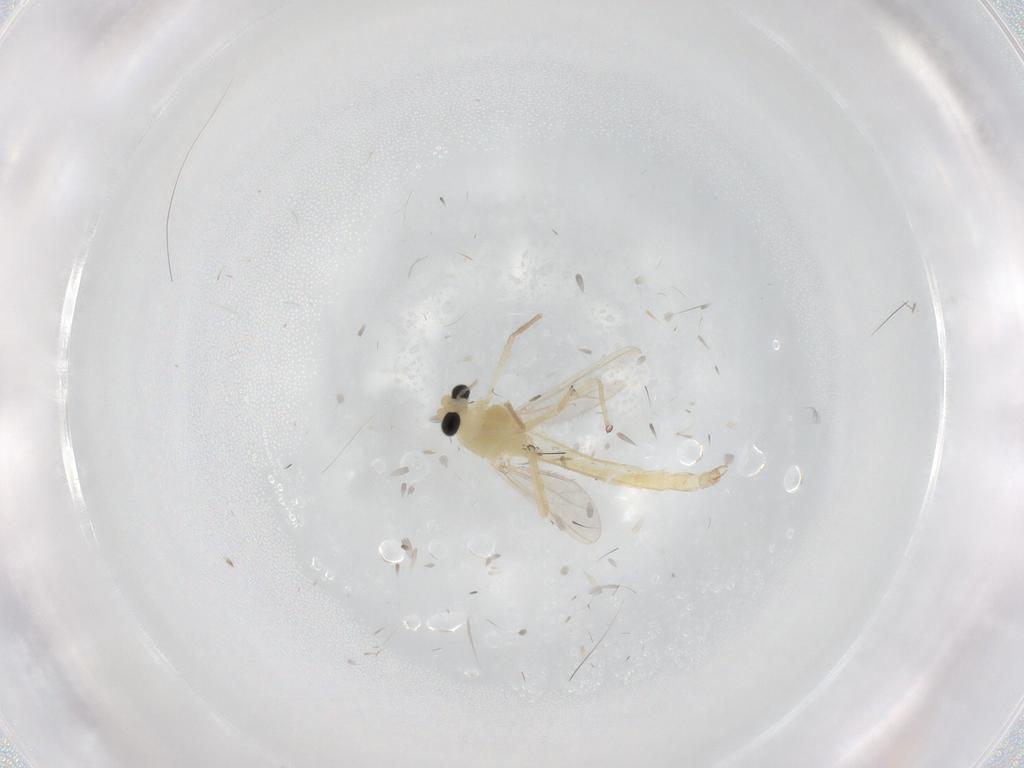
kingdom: Animalia
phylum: Arthropoda
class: Insecta
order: Diptera
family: Chironomidae
